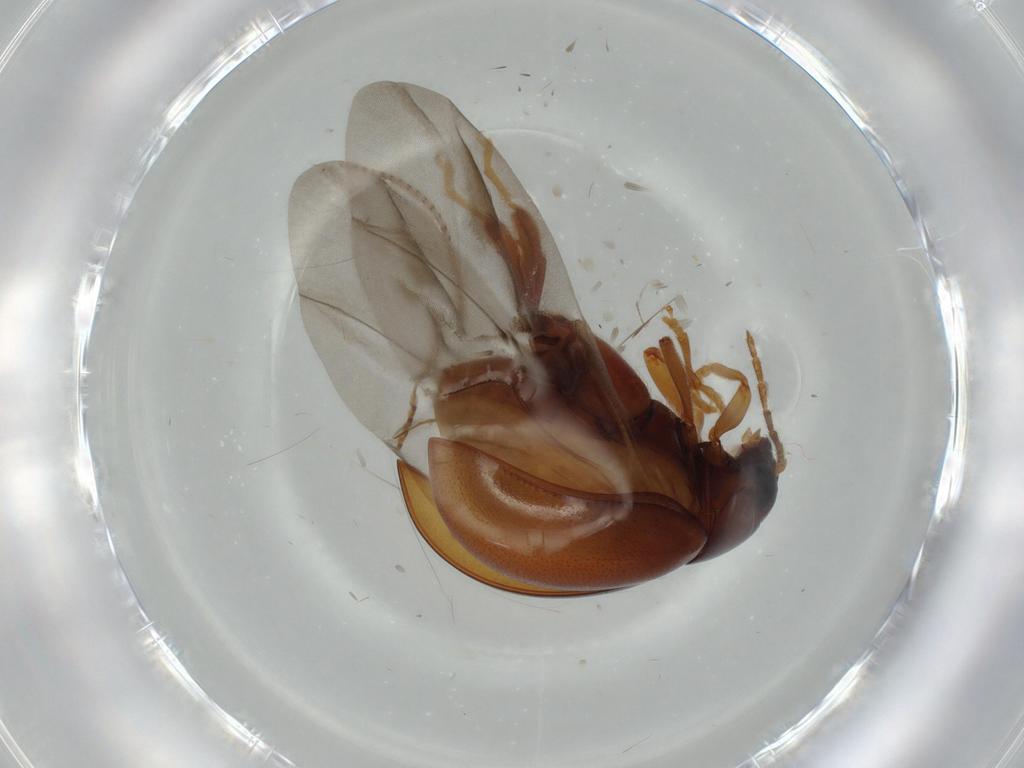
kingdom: Animalia
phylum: Arthropoda
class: Insecta
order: Coleoptera
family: Chrysomelidae
